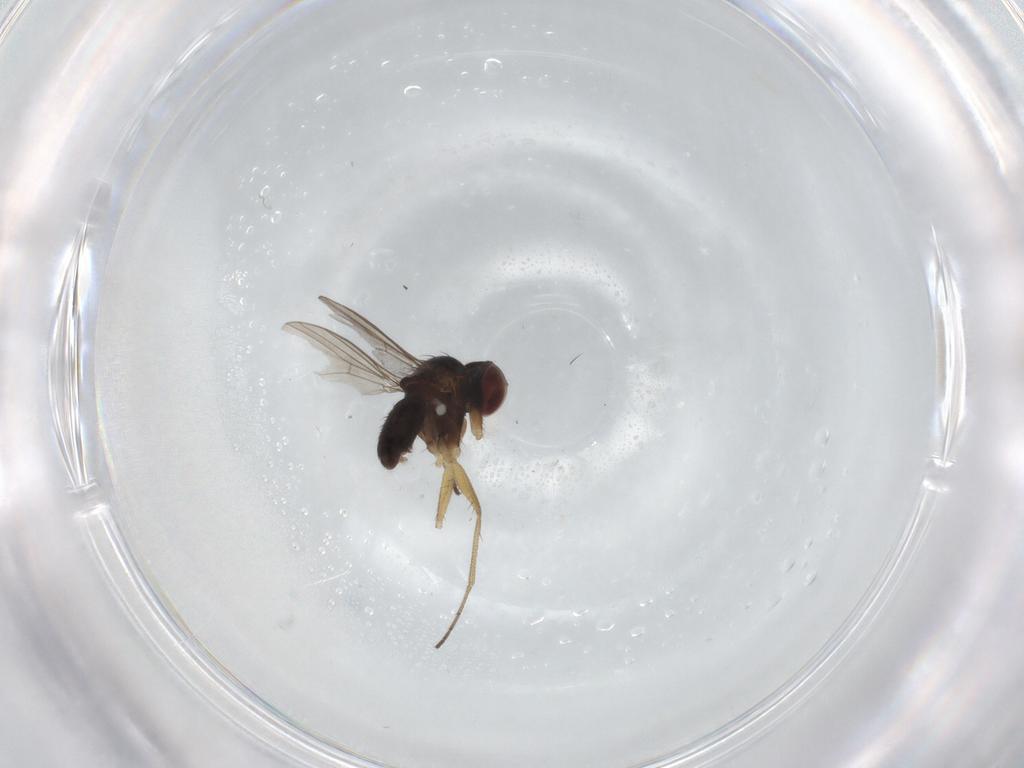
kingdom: Animalia
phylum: Arthropoda
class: Insecta
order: Diptera
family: Dolichopodidae
